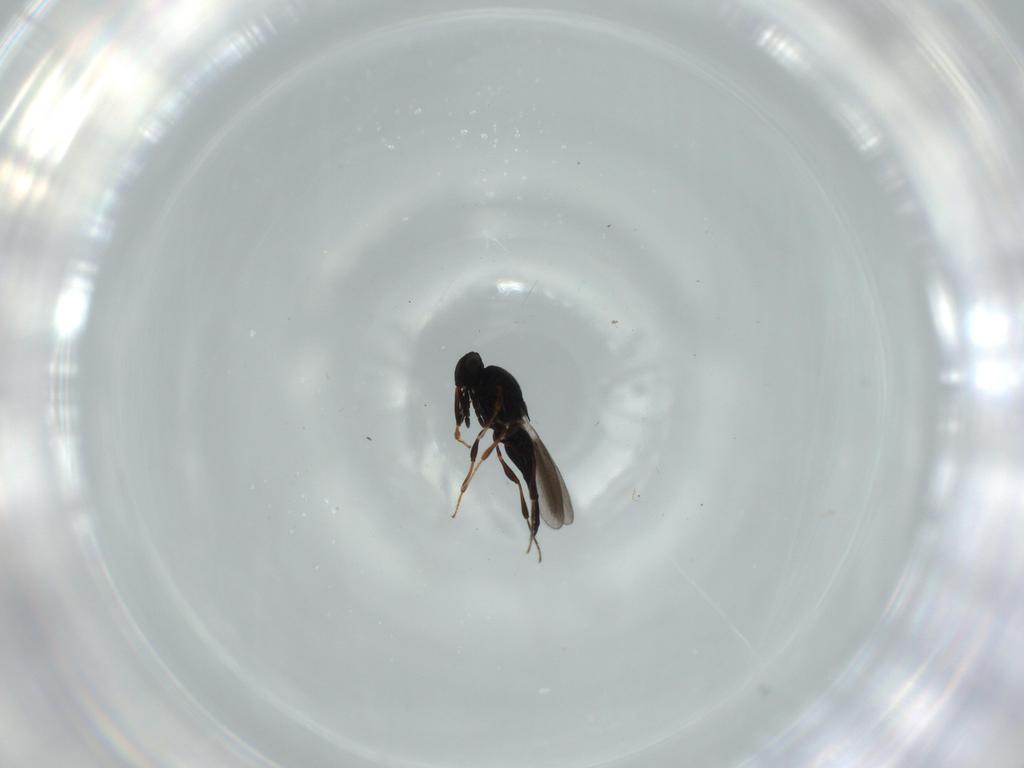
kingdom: Animalia
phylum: Arthropoda
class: Insecta
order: Hymenoptera
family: Platygastridae
